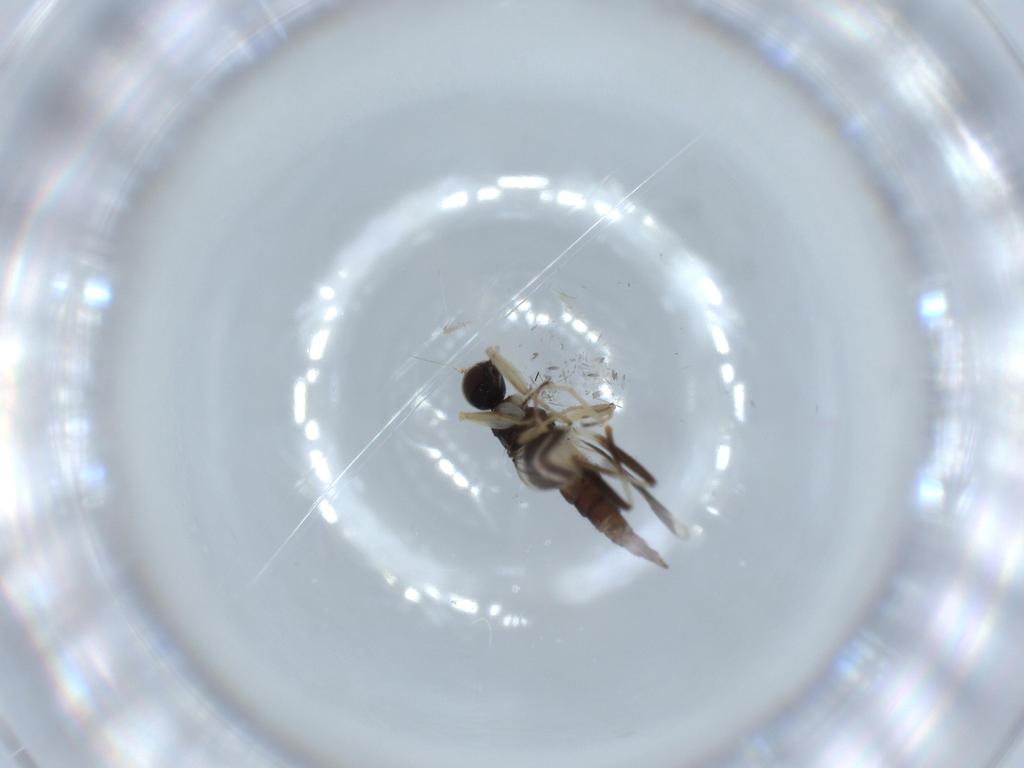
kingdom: Animalia
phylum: Arthropoda
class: Insecta
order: Diptera
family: Hybotidae
